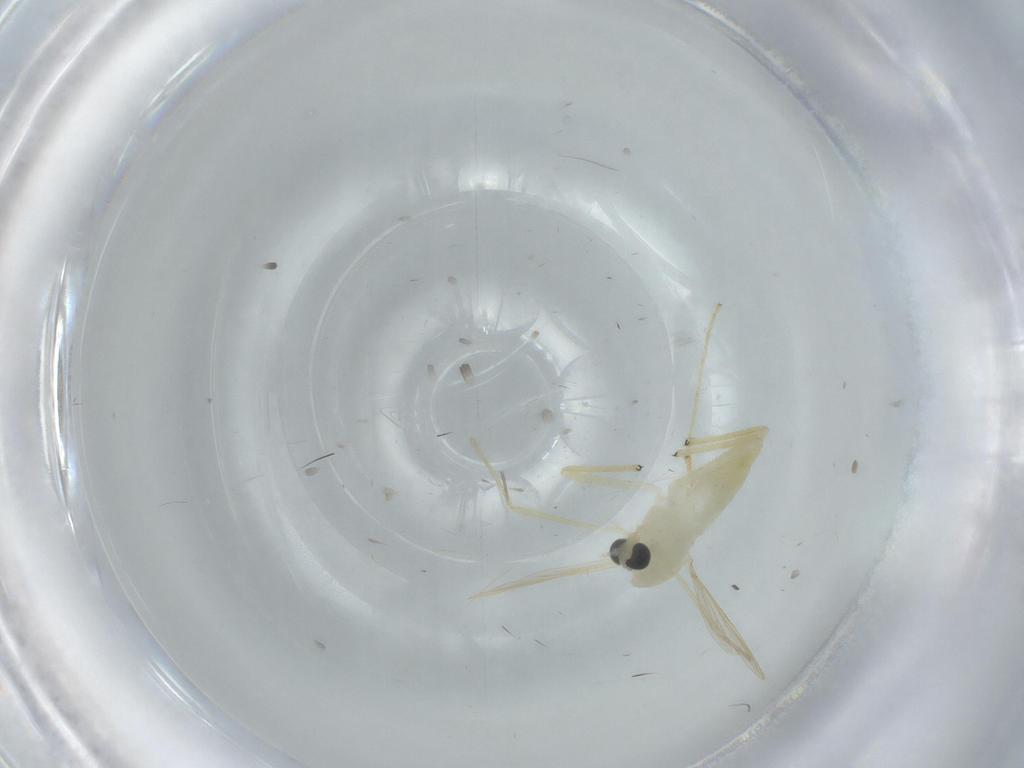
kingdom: Animalia
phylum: Arthropoda
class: Insecta
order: Diptera
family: Chironomidae
